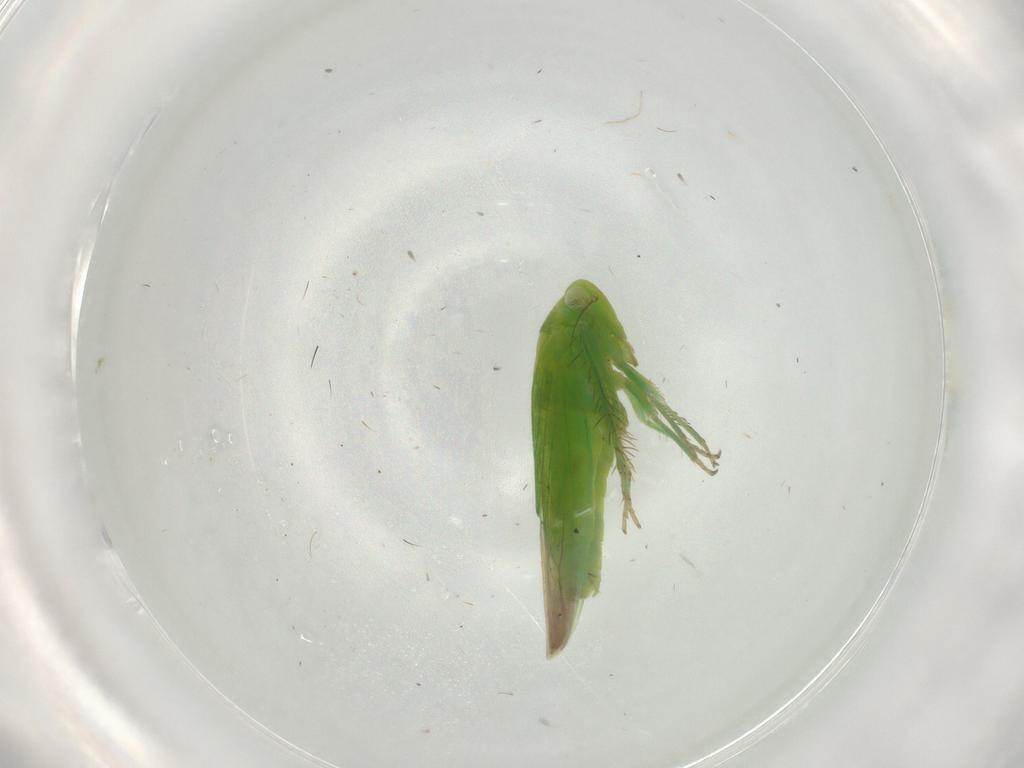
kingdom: Animalia
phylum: Arthropoda
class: Insecta
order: Hemiptera
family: Cicadellidae
